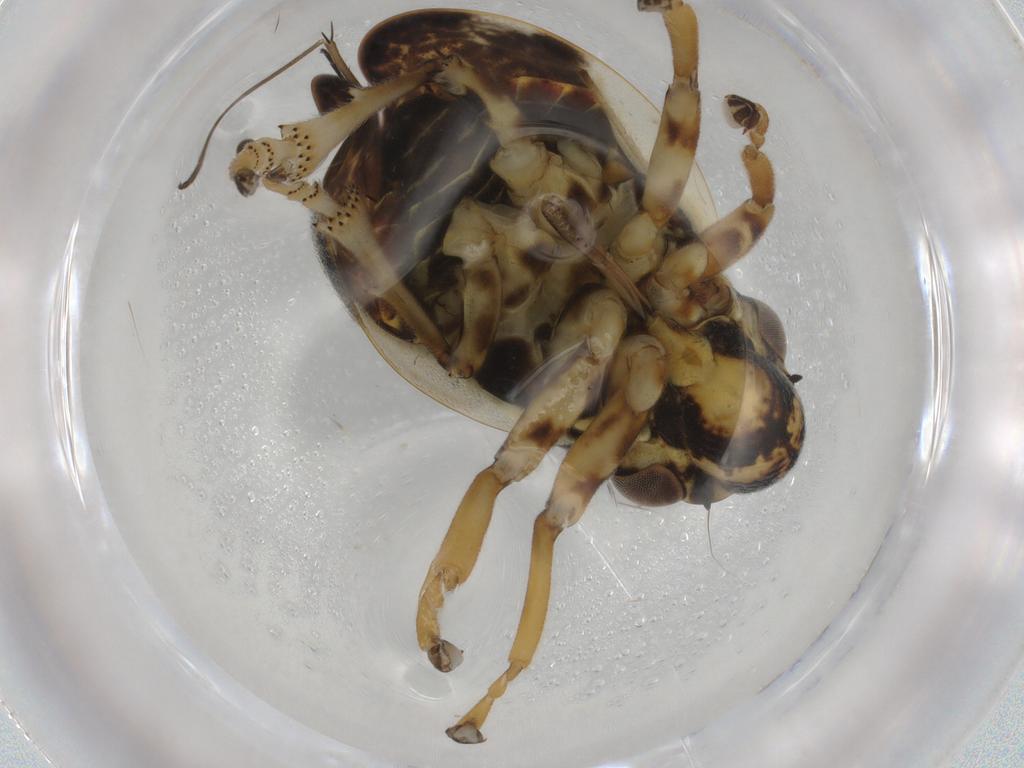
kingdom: Animalia
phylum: Arthropoda
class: Insecta
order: Hemiptera
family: Aphrophoridae
